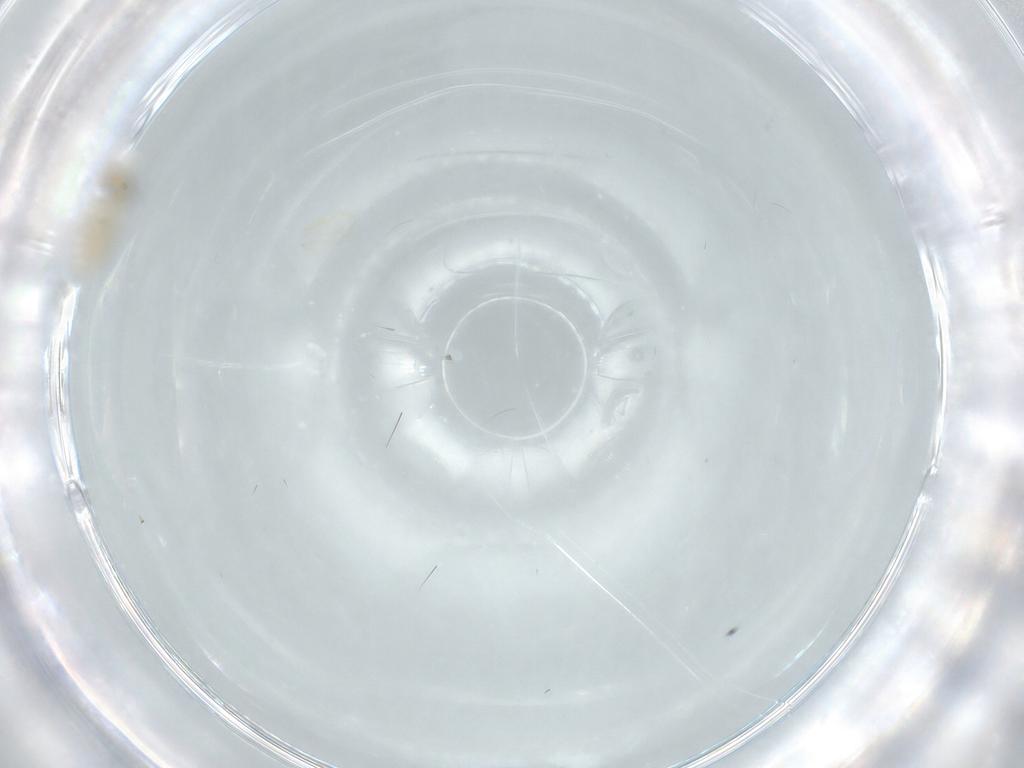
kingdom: Animalia
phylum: Arthropoda
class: Insecta
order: Diptera
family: Chironomidae
